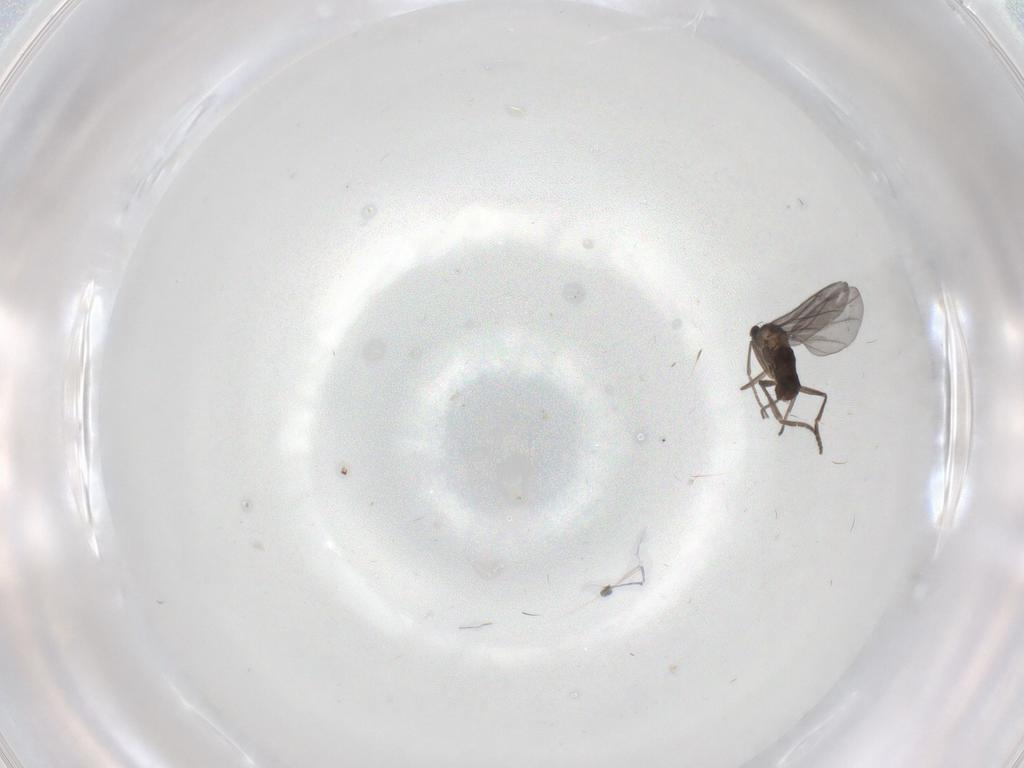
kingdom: Animalia
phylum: Arthropoda
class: Insecta
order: Diptera
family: Phoridae
